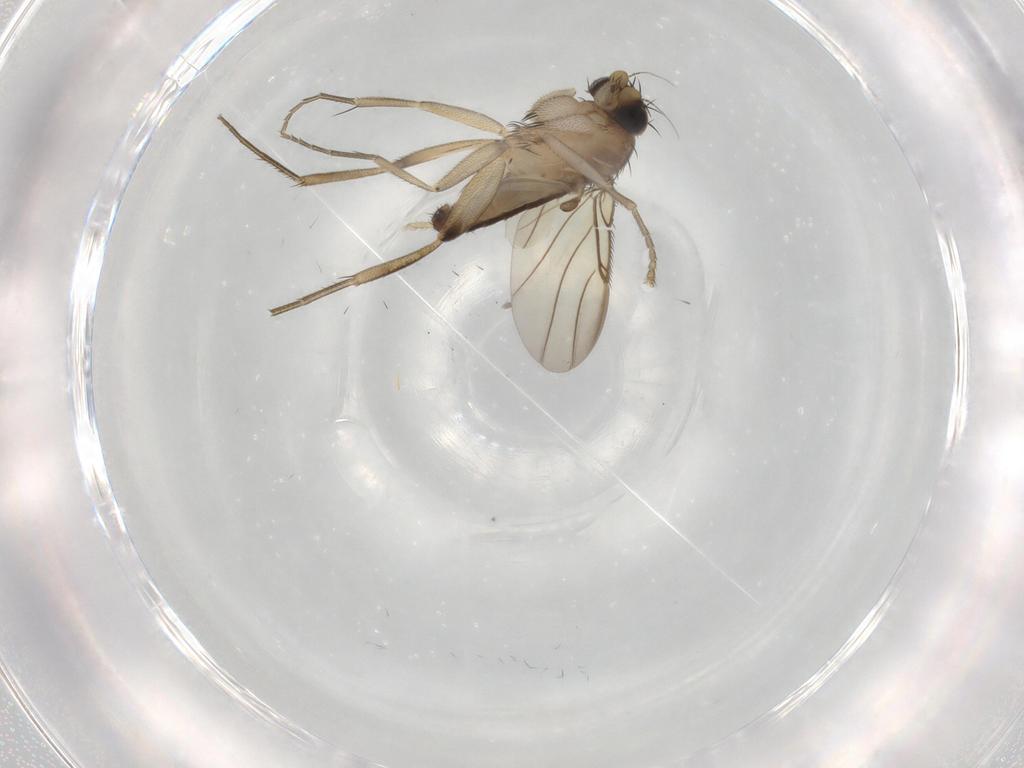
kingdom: Animalia
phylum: Arthropoda
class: Insecta
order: Diptera
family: Phoridae
